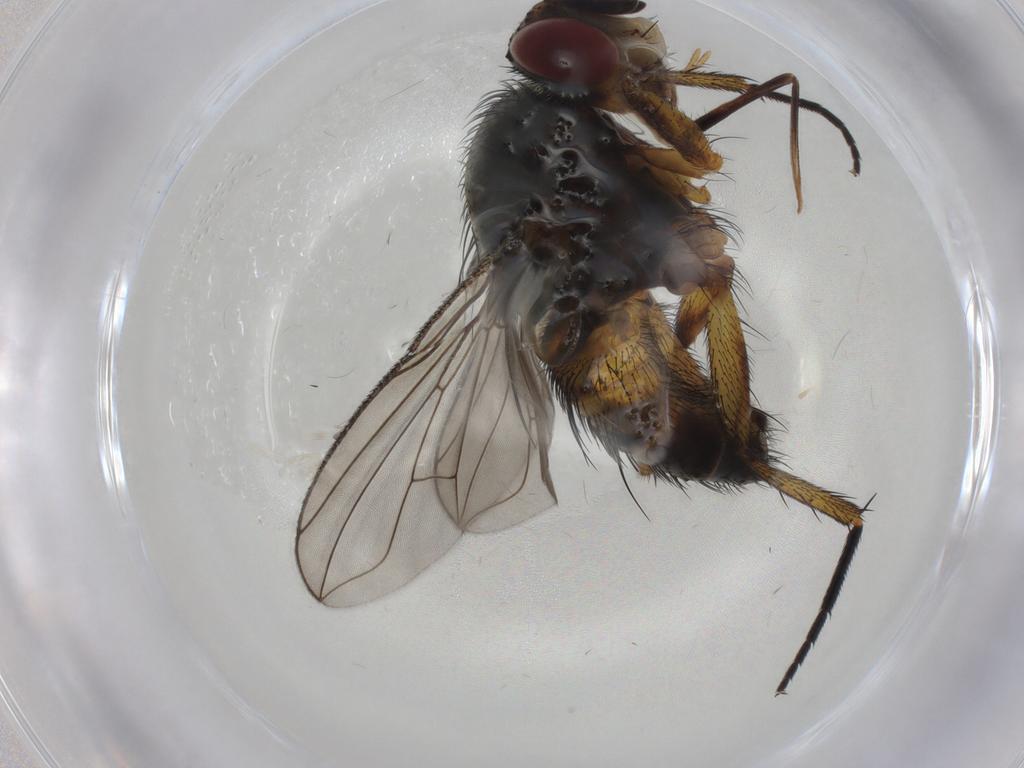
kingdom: Animalia
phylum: Arthropoda
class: Insecta
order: Diptera
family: Tachinidae
